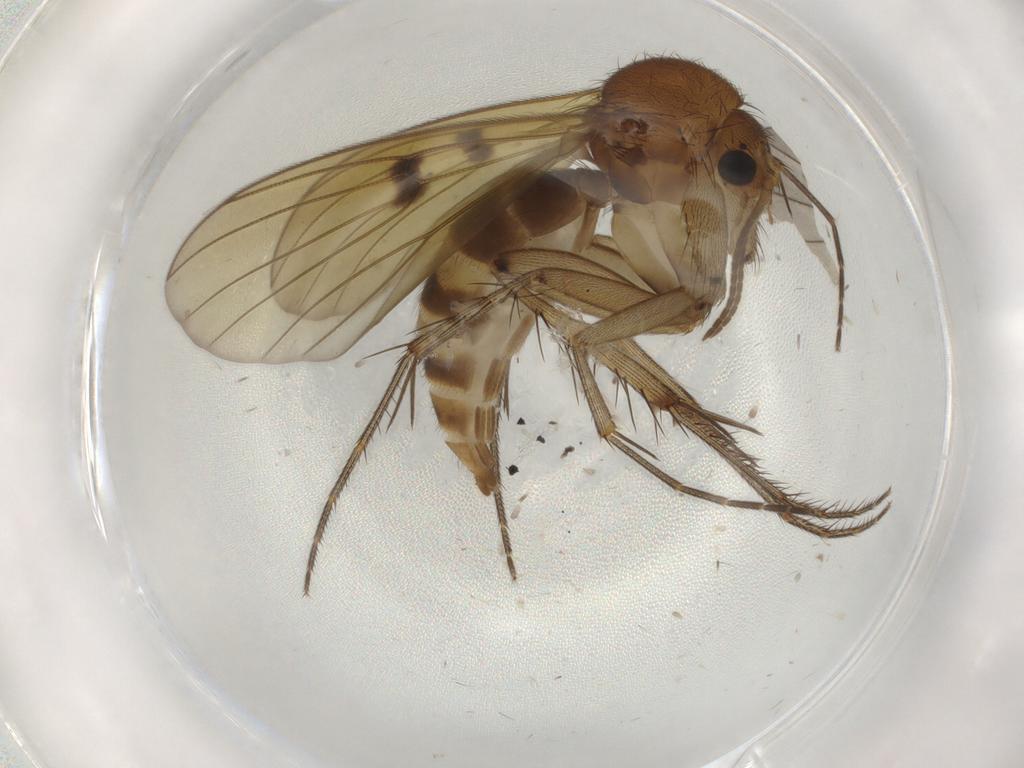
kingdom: Animalia
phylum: Arthropoda
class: Insecta
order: Diptera
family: Mycetophilidae
